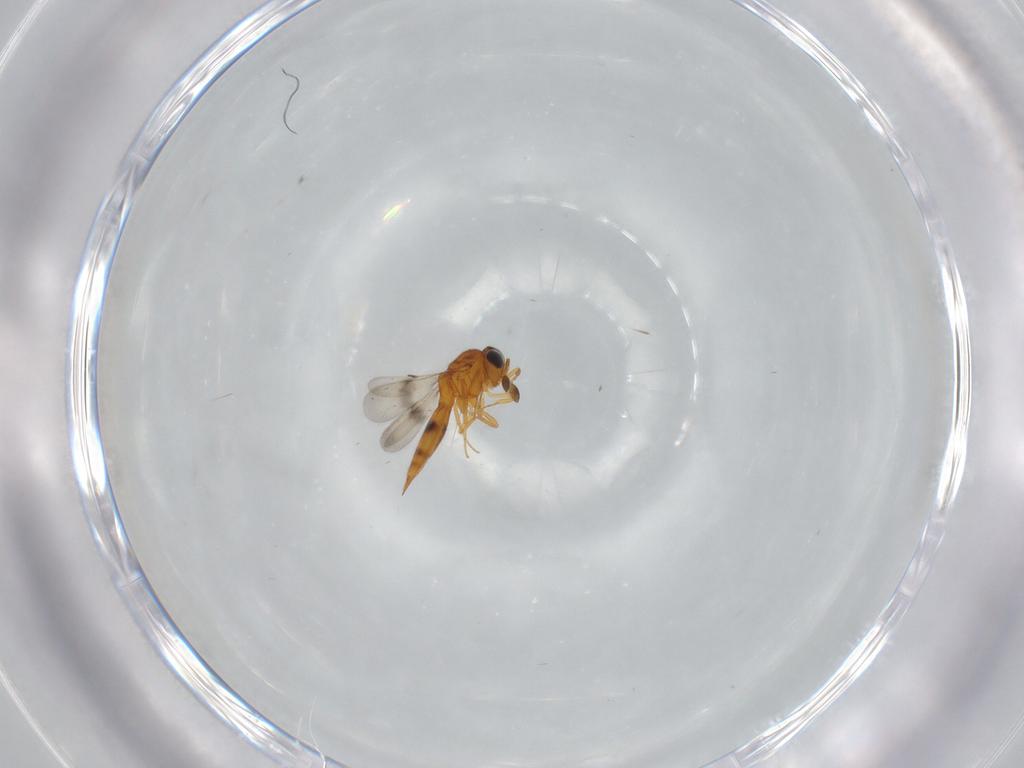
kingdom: Animalia
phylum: Arthropoda
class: Insecta
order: Hymenoptera
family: Scelionidae
